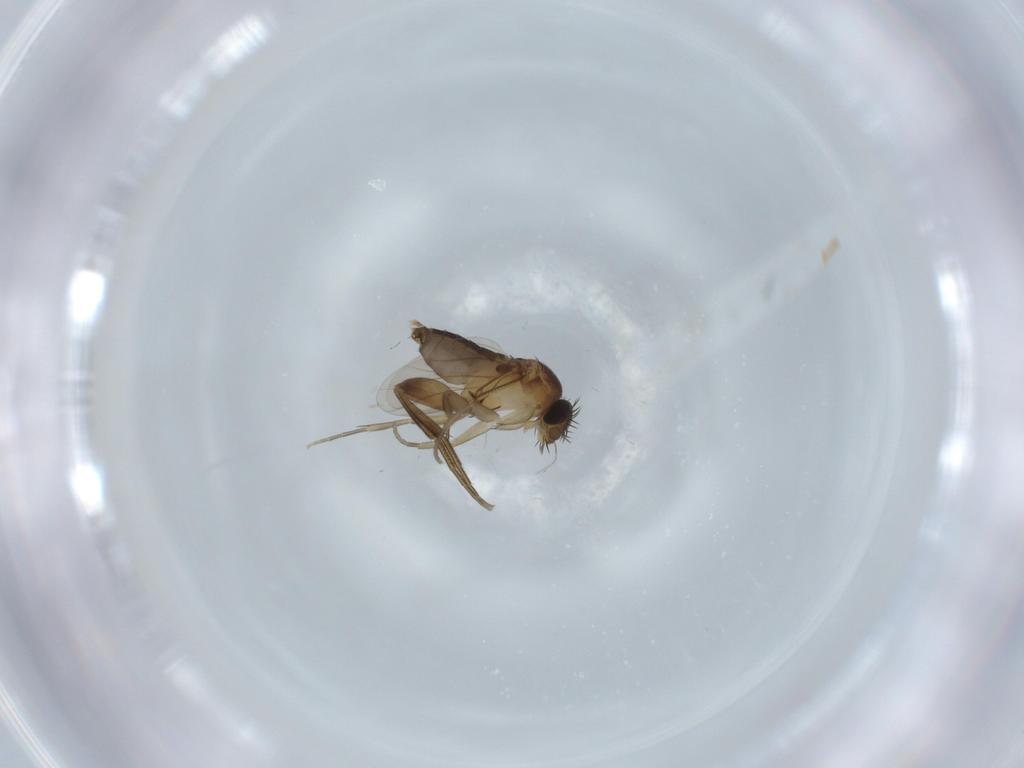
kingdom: Animalia
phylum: Arthropoda
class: Insecta
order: Diptera
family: Phoridae
